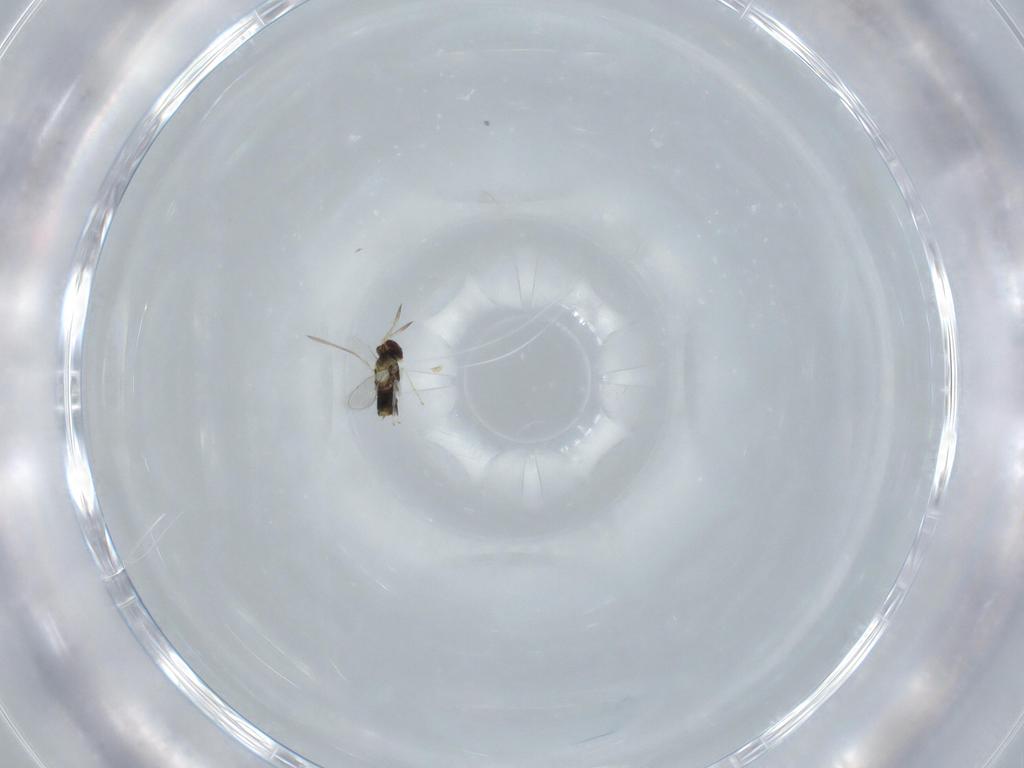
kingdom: Animalia
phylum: Arthropoda
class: Insecta
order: Hymenoptera
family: Aphelinidae
